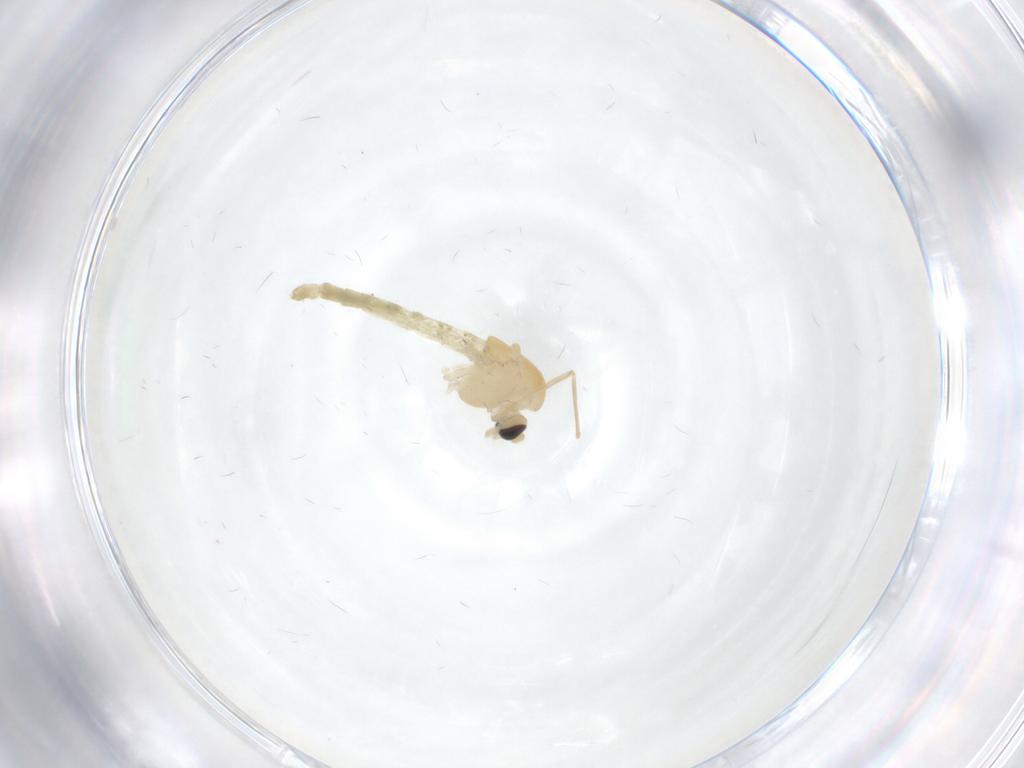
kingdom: Animalia
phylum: Arthropoda
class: Insecta
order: Diptera
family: Chironomidae
